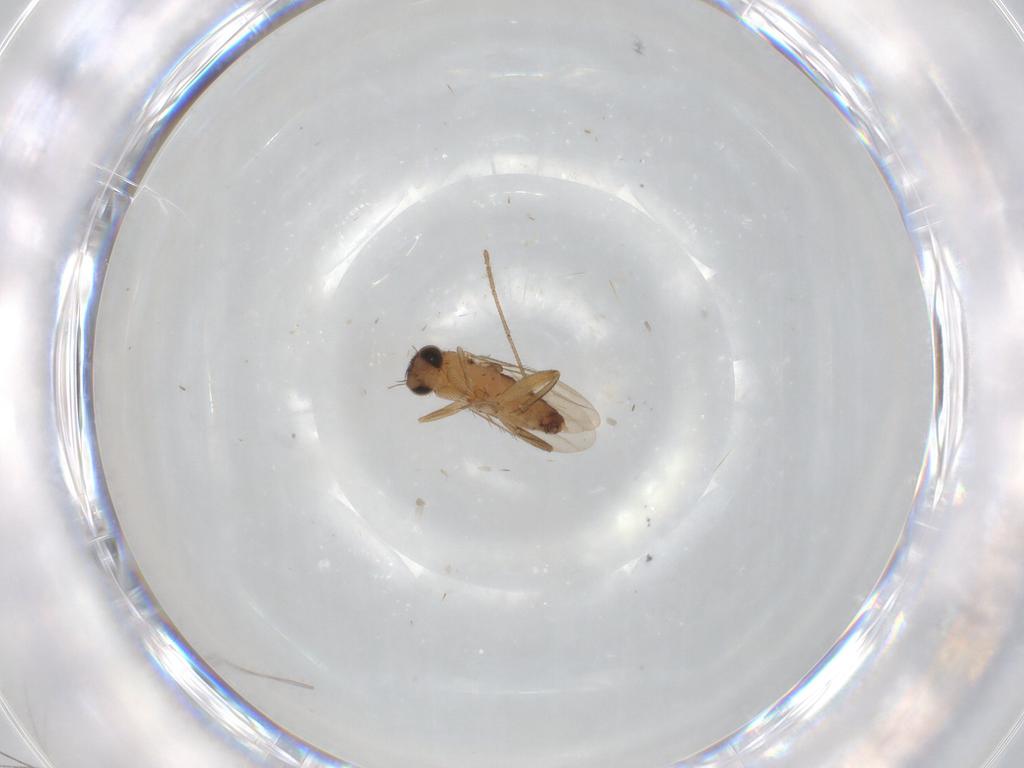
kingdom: Animalia
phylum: Arthropoda
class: Insecta
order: Diptera
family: Phoridae
